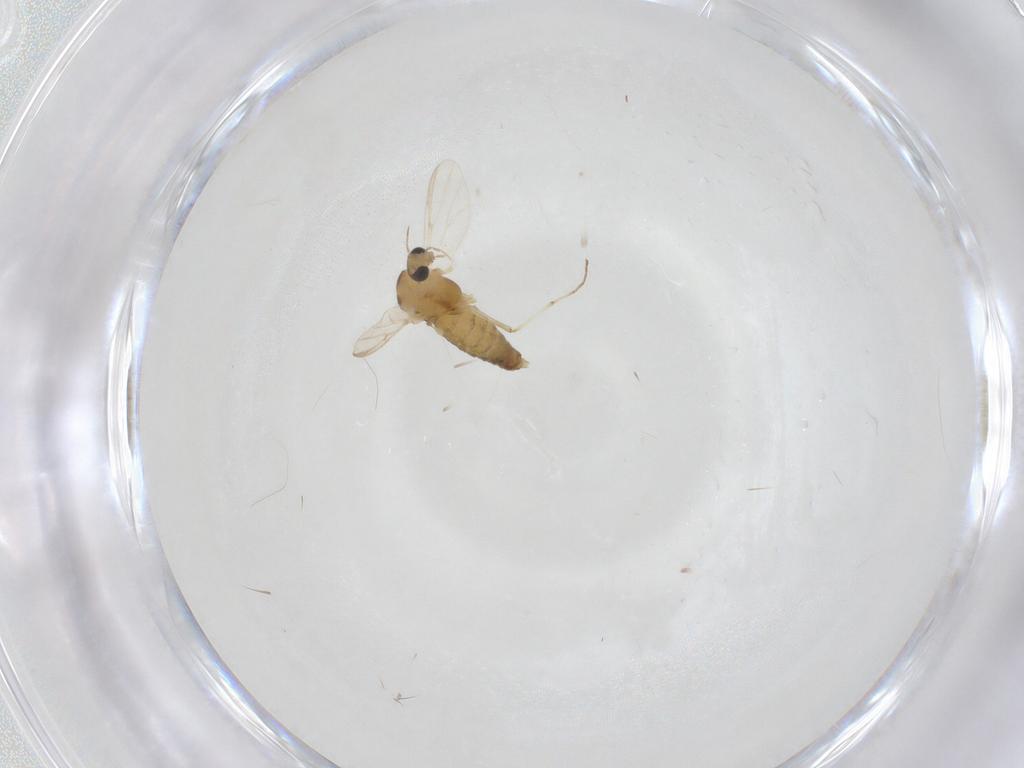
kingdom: Animalia
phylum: Arthropoda
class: Insecta
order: Diptera
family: Chironomidae
